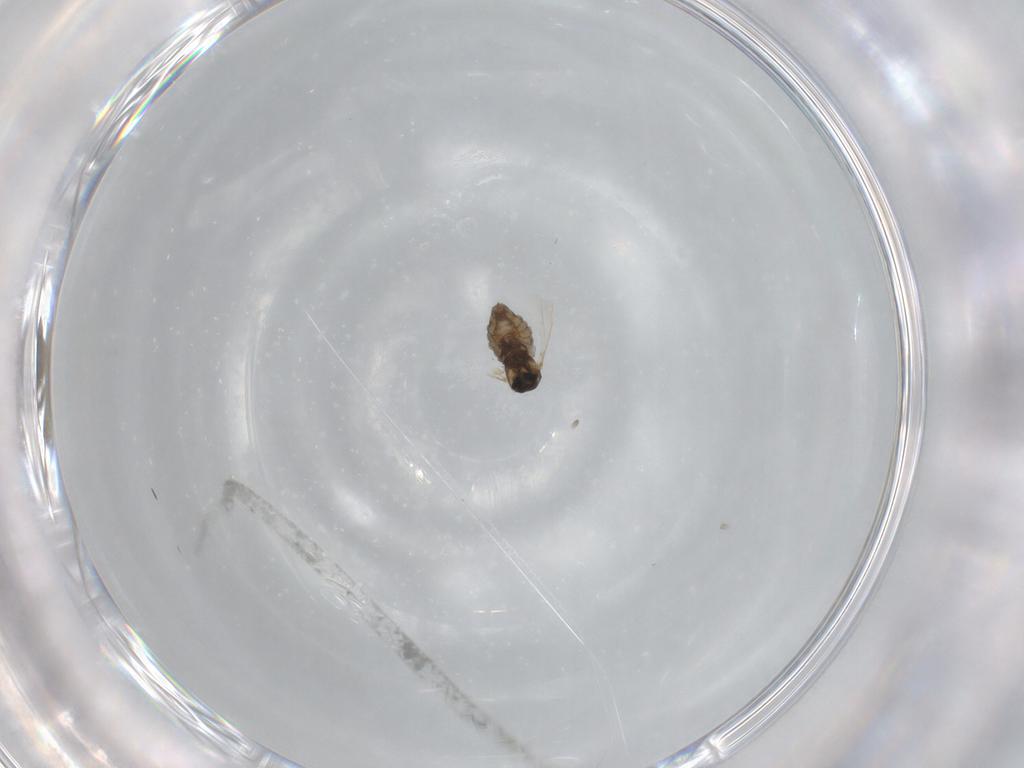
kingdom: Animalia
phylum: Arthropoda
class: Insecta
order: Diptera
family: Cecidomyiidae
